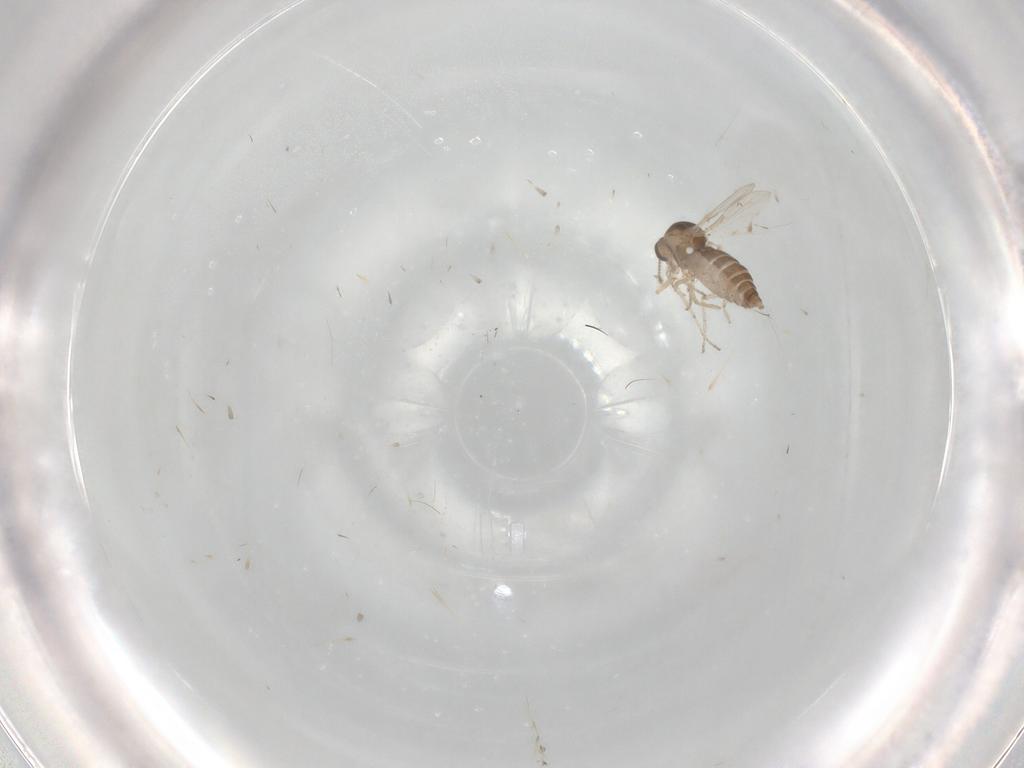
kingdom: Animalia
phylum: Arthropoda
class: Insecta
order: Diptera
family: Ceratopogonidae
